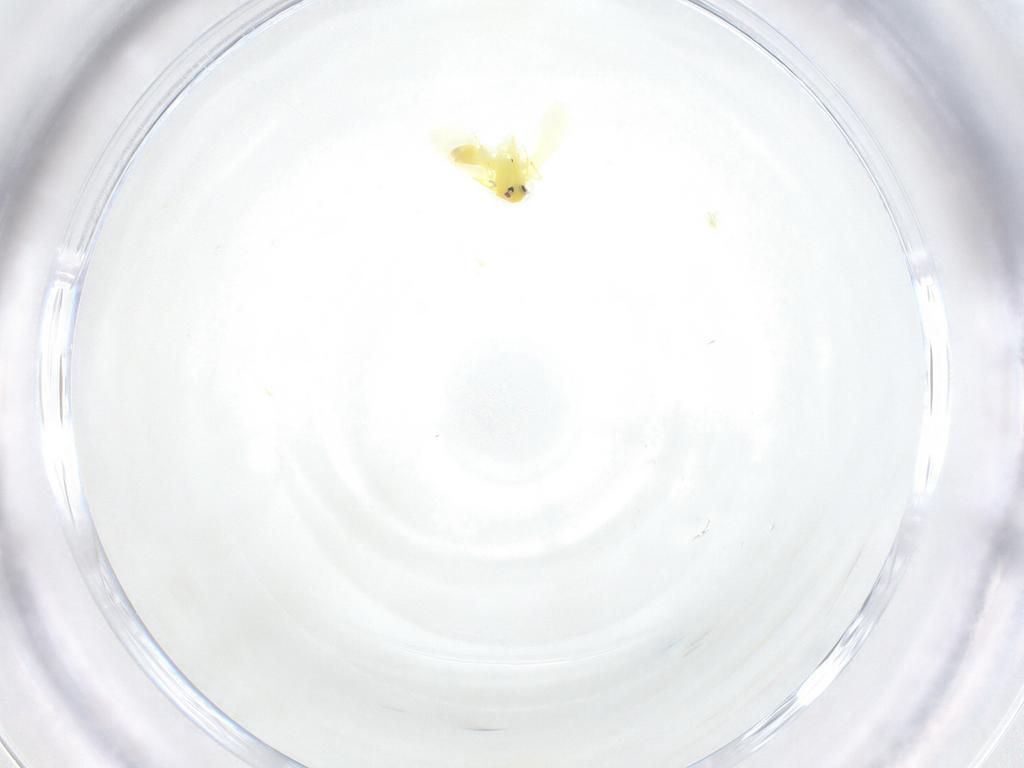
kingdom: Animalia
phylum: Arthropoda
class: Insecta
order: Hemiptera
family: Aleyrodidae
